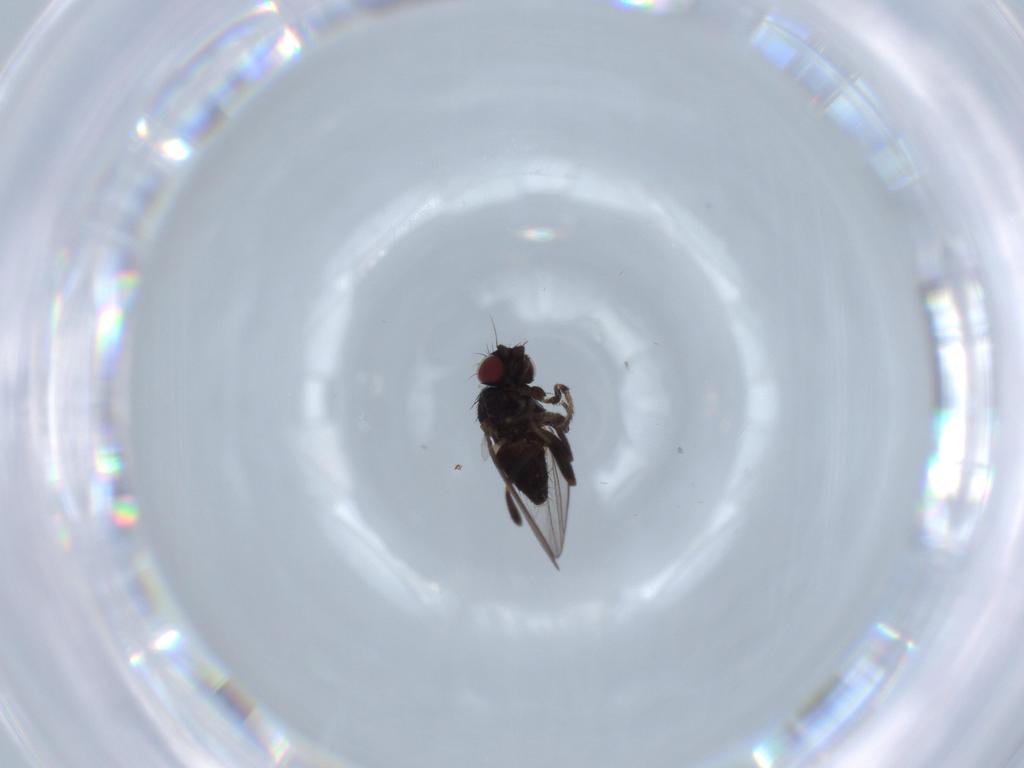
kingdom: Animalia
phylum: Arthropoda
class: Insecta
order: Diptera
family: Milichiidae
